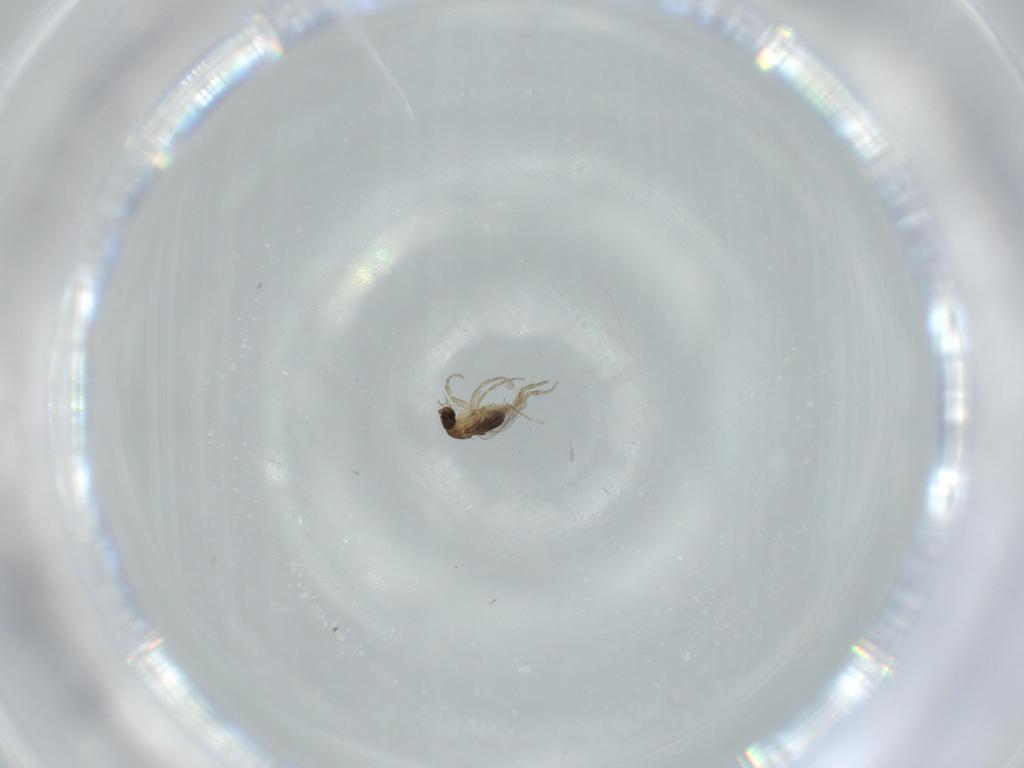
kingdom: Animalia
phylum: Arthropoda
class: Insecta
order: Diptera
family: Phoridae
